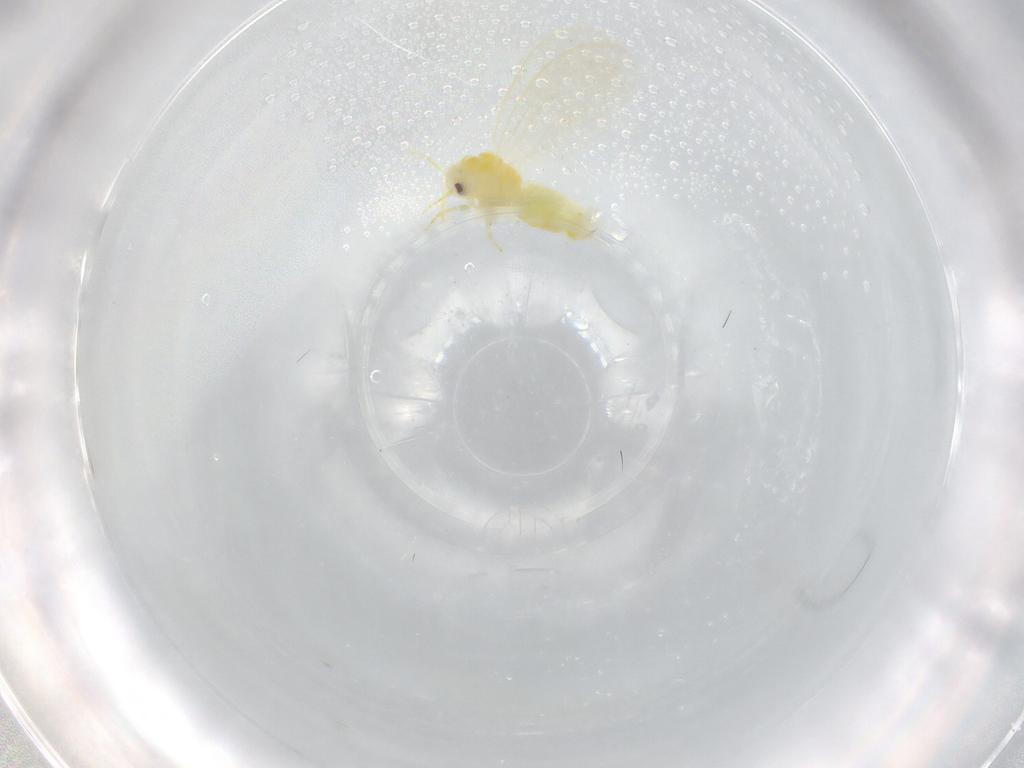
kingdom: Animalia
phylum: Arthropoda
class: Insecta
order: Hemiptera
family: Aleyrodidae
